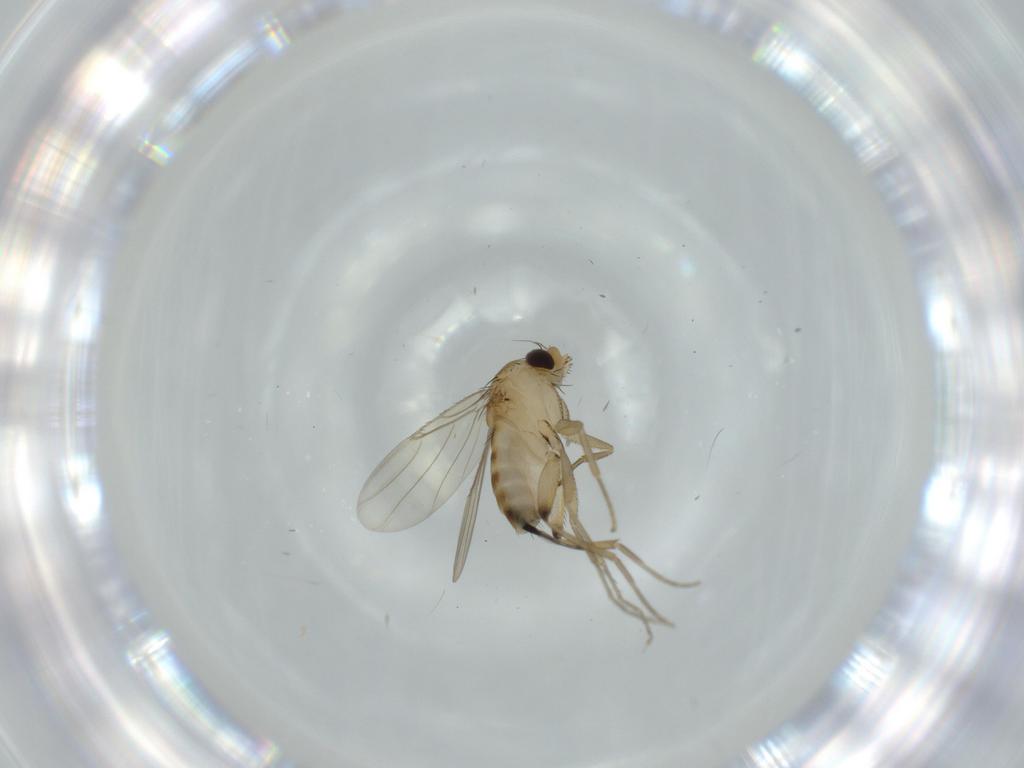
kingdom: Animalia
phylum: Arthropoda
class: Insecta
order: Diptera
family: Phoridae
